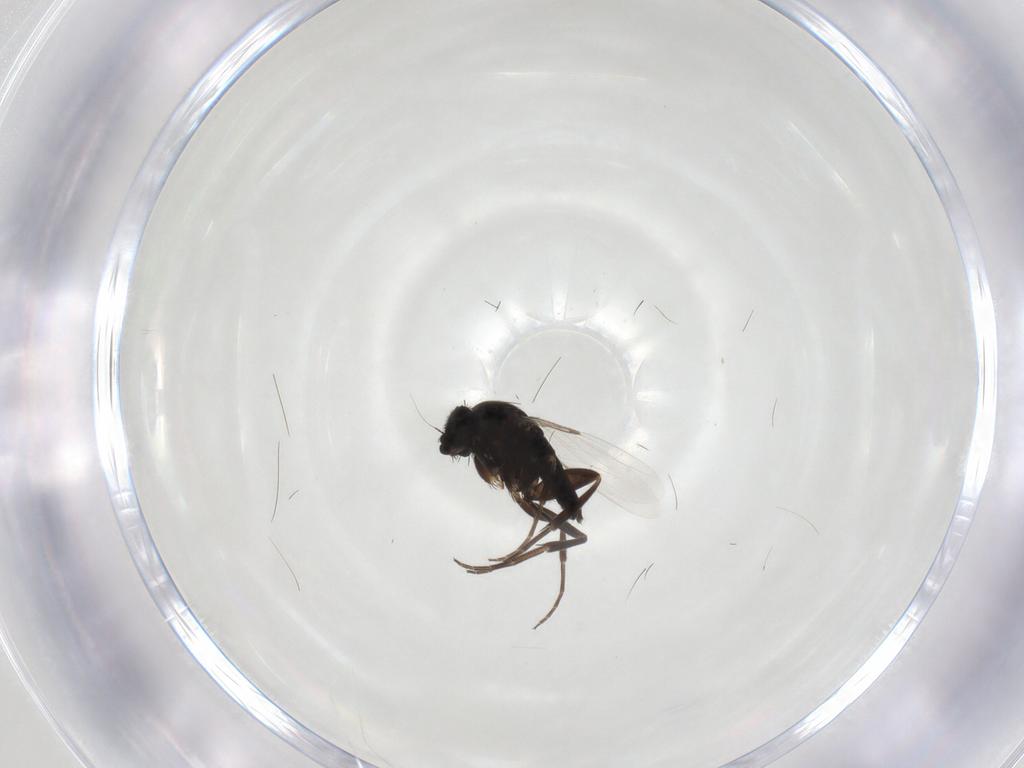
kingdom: Animalia
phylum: Arthropoda
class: Insecta
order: Diptera
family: Phoridae
